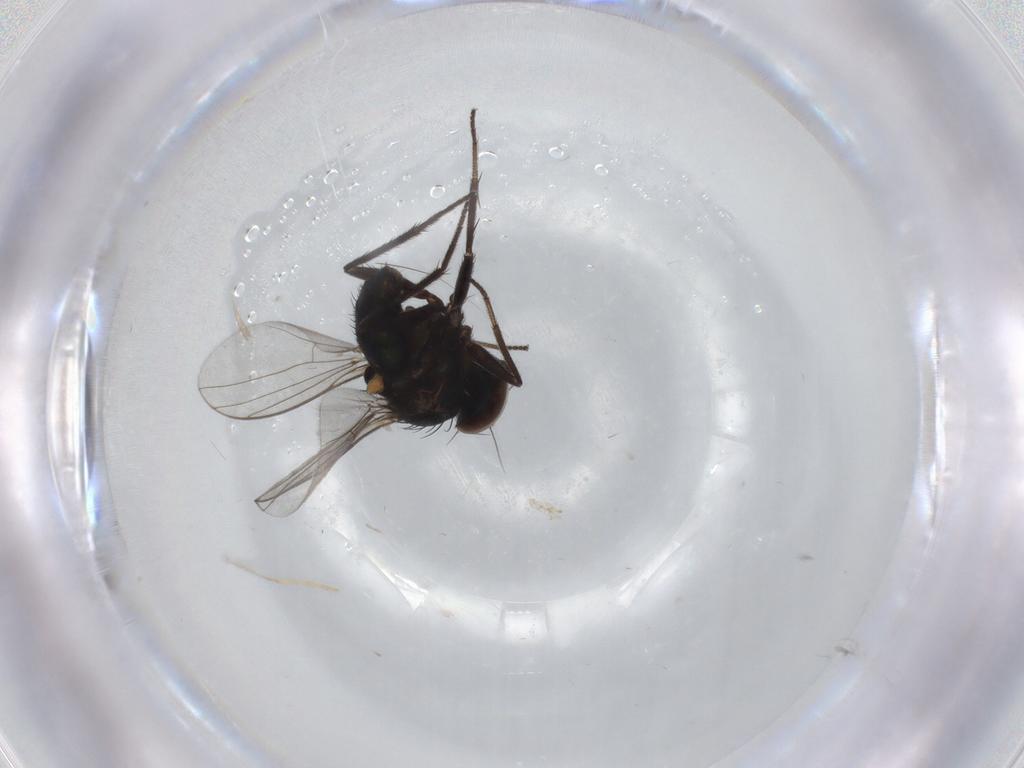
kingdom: Animalia
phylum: Arthropoda
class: Insecta
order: Diptera
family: Dolichopodidae
